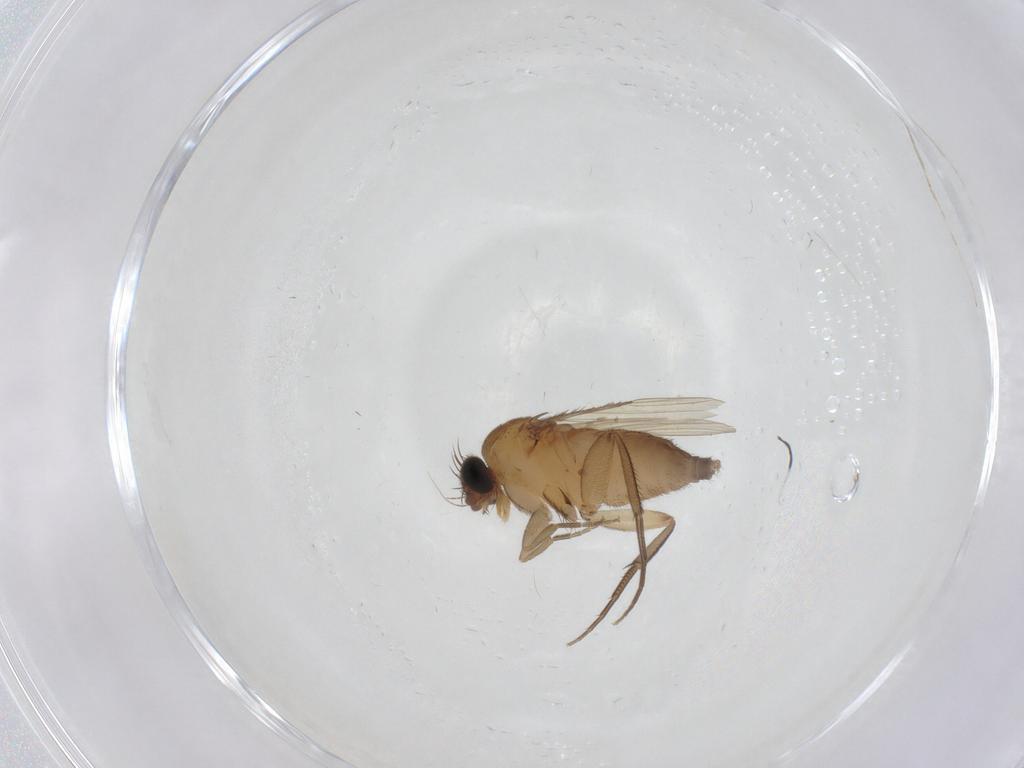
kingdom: Animalia
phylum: Arthropoda
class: Insecta
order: Diptera
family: Phoridae
